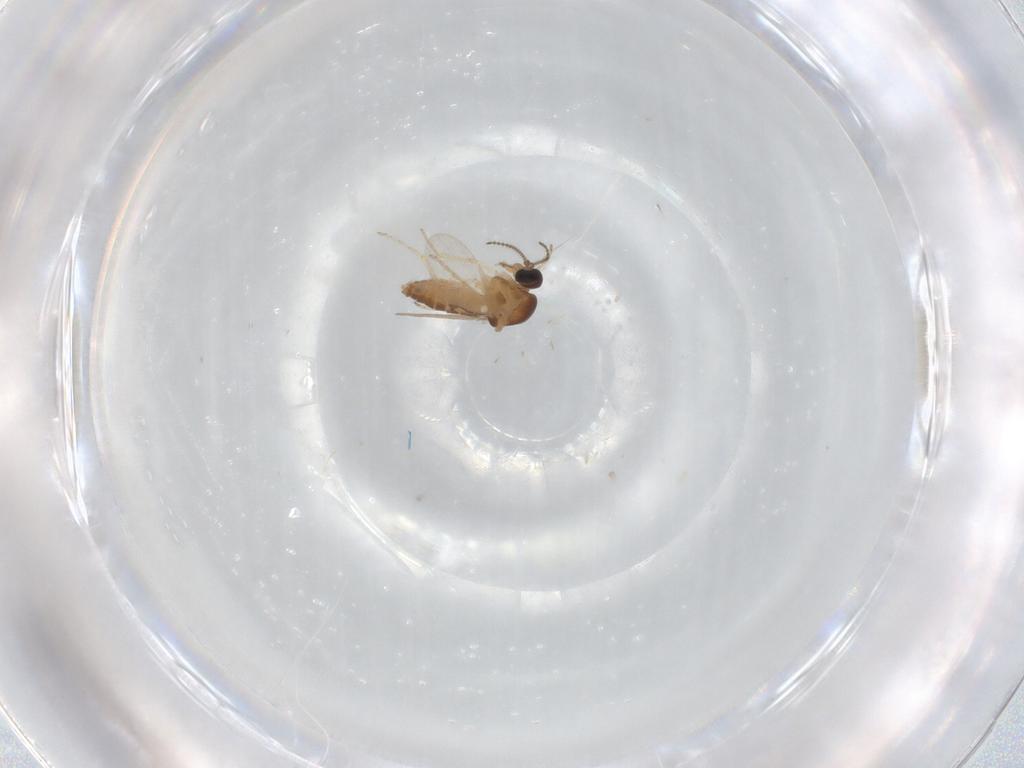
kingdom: Animalia
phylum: Arthropoda
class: Insecta
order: Diptera
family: Ceratopogonidae
